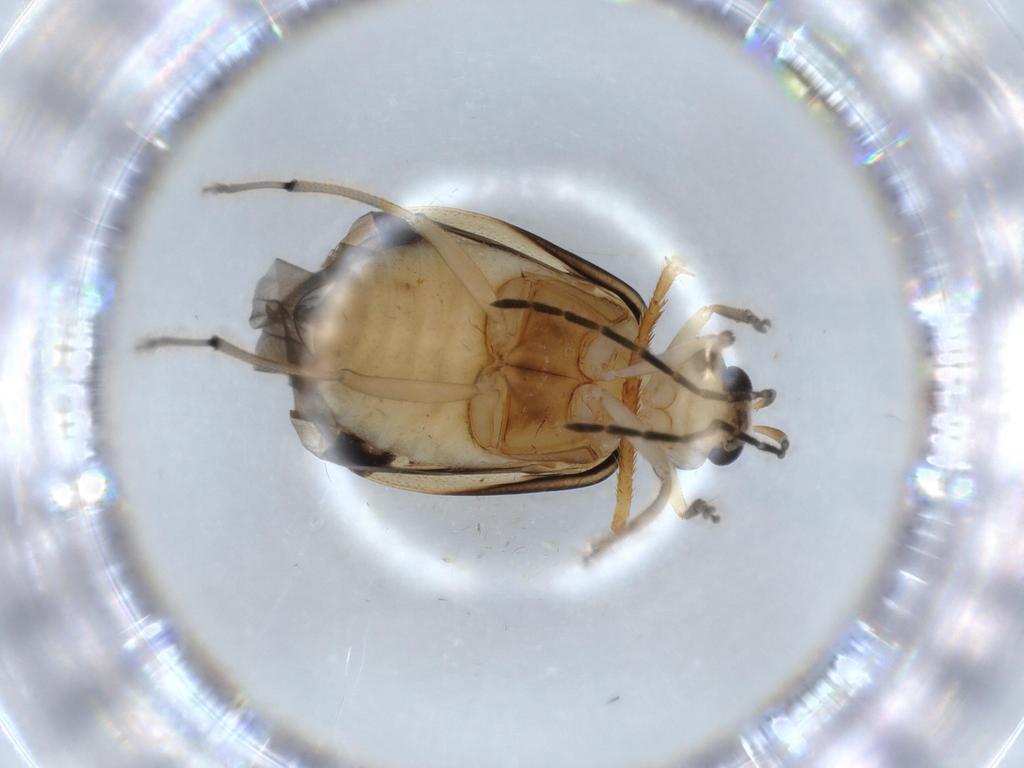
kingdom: Animalia
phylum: Arthropoda
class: Insecta
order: Coleoptera
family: Chrysomelidae
